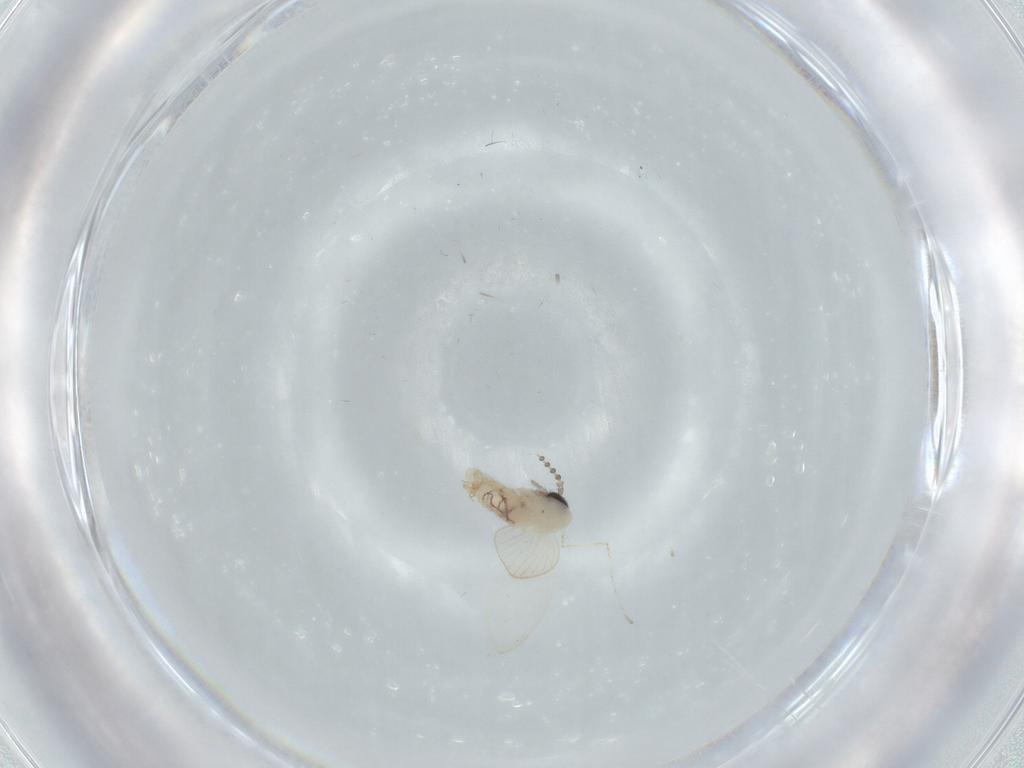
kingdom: Animalia
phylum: Arthropoda
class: Insecta
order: Diptera
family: Psychodidae
